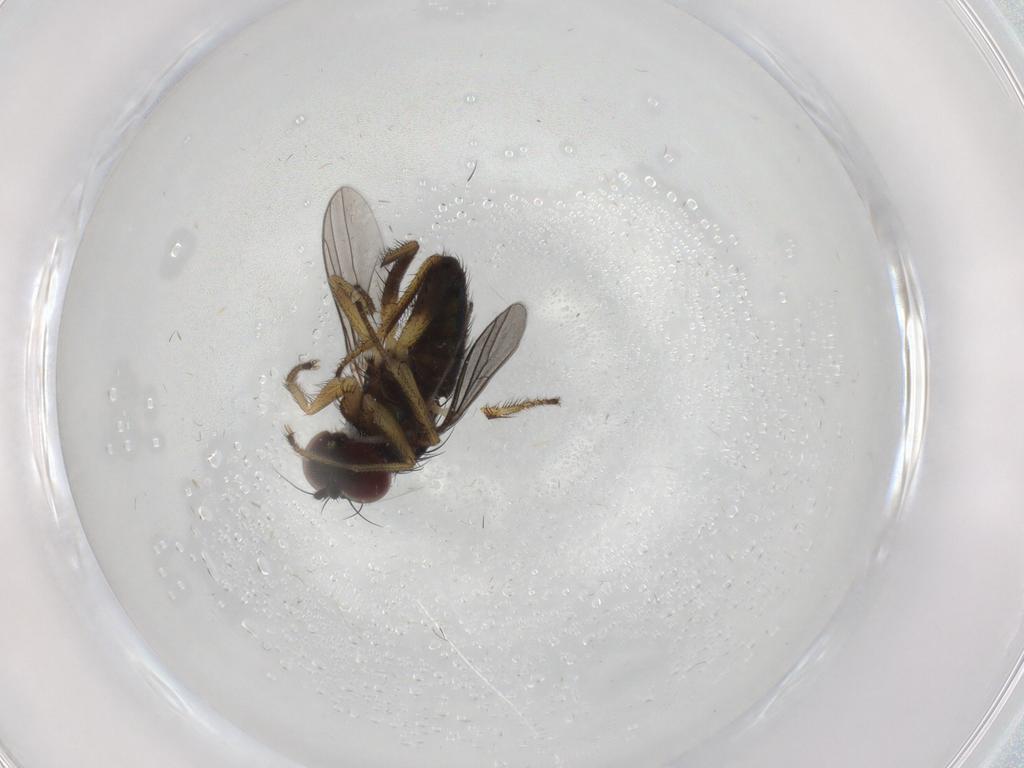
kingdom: Animalia
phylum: Arthropoda
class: Insecta
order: Diptera
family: Dolichopodidae
